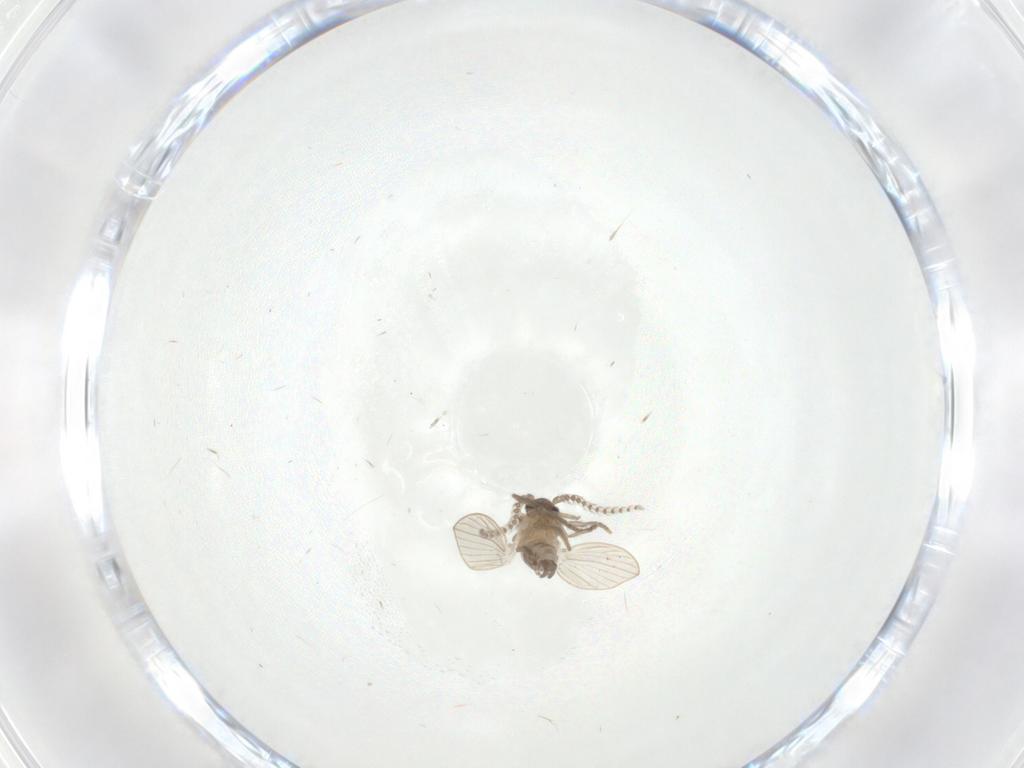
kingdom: Animalia
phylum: Arthropoda
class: Insecta
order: Diptera
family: Psychodidae
